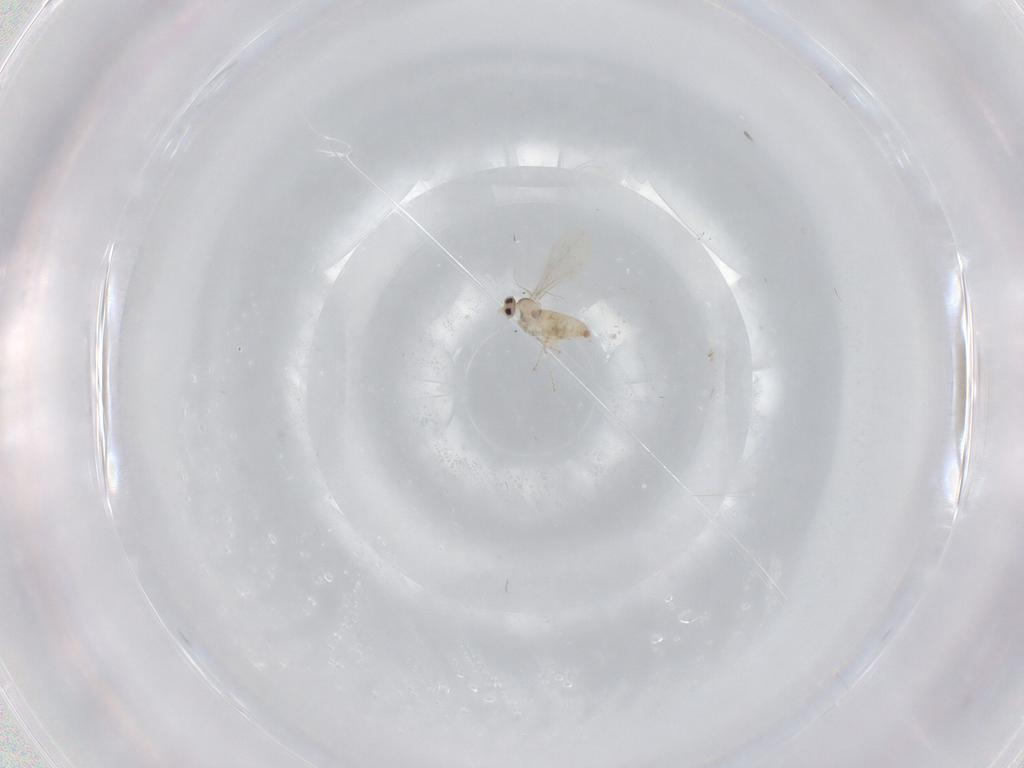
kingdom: Animalia
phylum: Arthropoda
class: Insecta
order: Diptera
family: Cecidomyiidae
